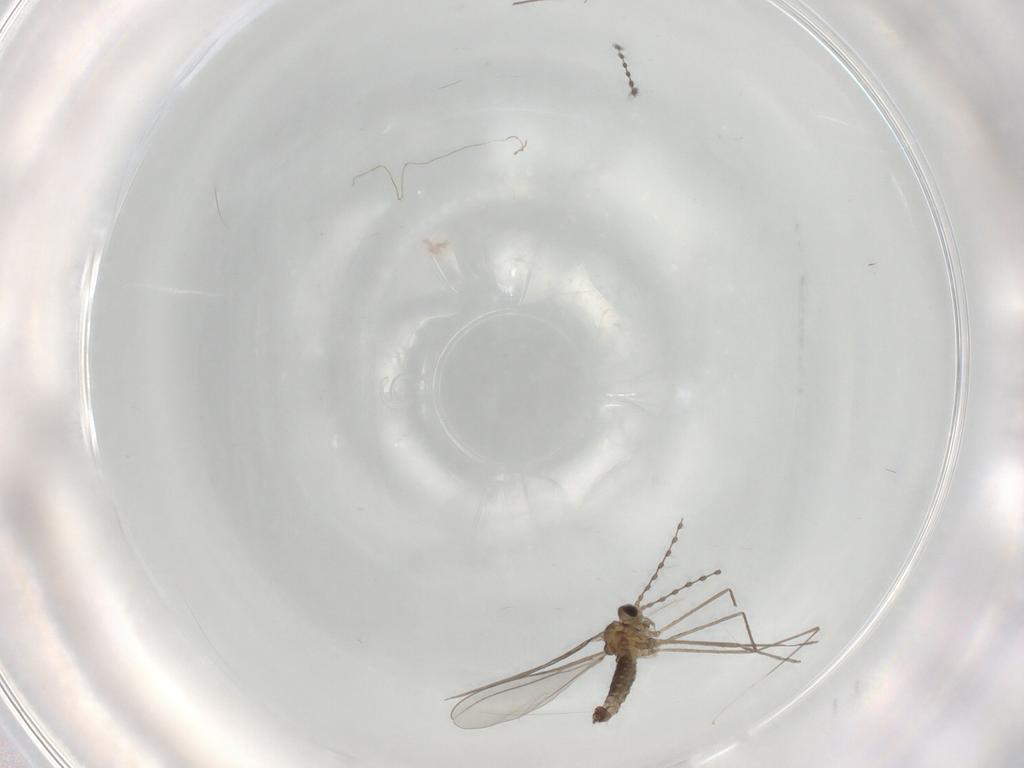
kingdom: Animalia
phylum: Arthropoda
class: Insecta
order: Diptera
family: Cecidomyiidae
